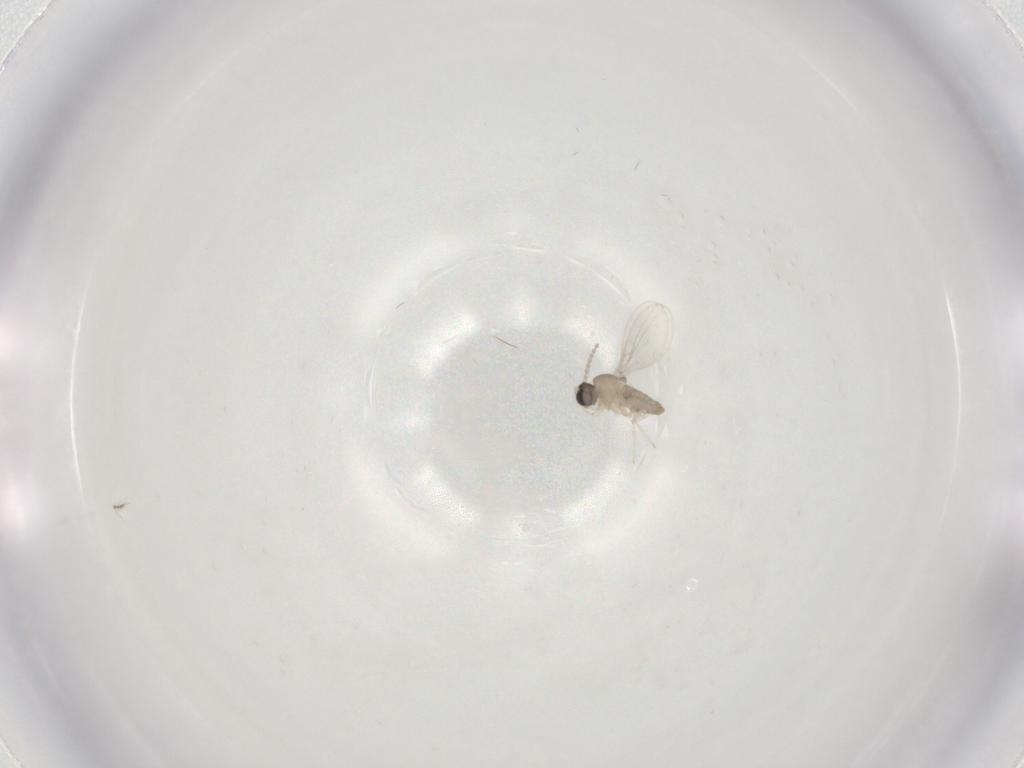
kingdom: Animalia
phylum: Arthropoda
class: Insecta
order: Diptera
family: Cecidomyiidae
